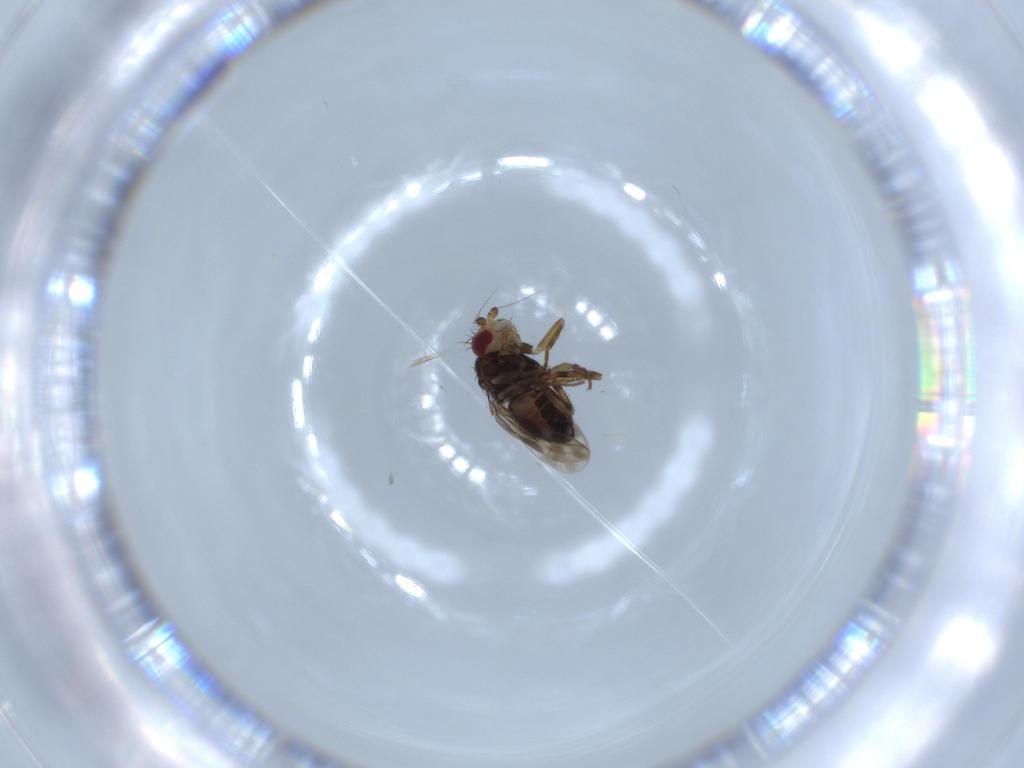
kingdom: Animalia
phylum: Arthropoda
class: Insecta
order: Diptera
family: Sphaeroceridae
